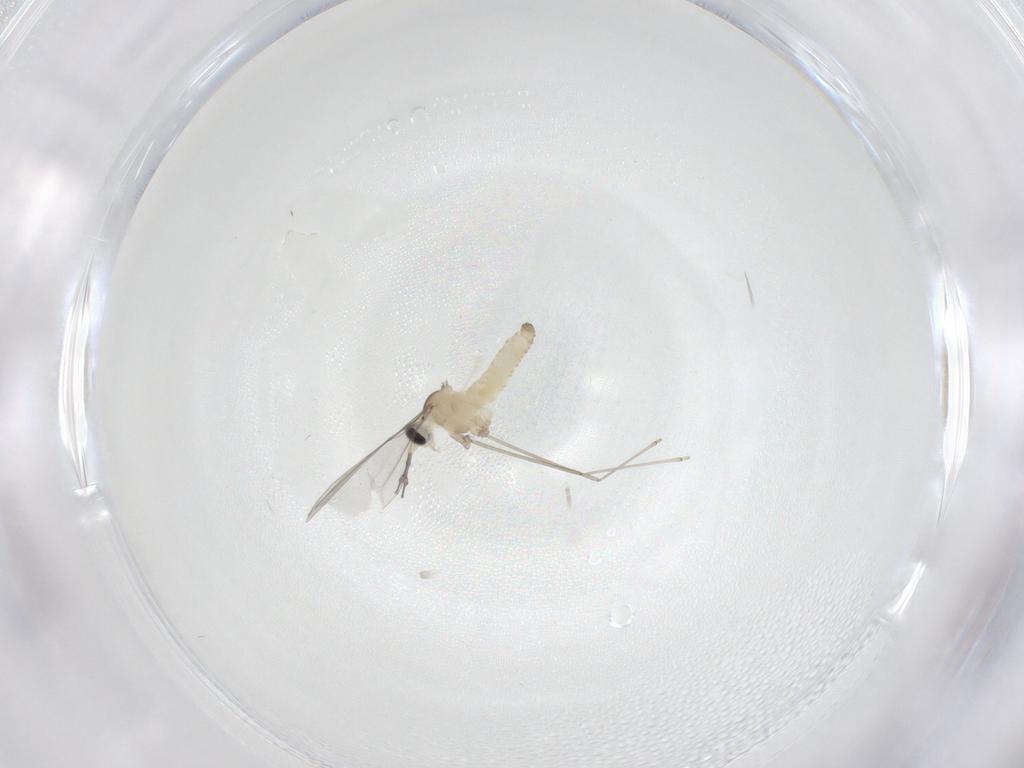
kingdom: Animalia
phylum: Arthropoda
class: Insecta
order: Diptera
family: Cecidomyiidae
